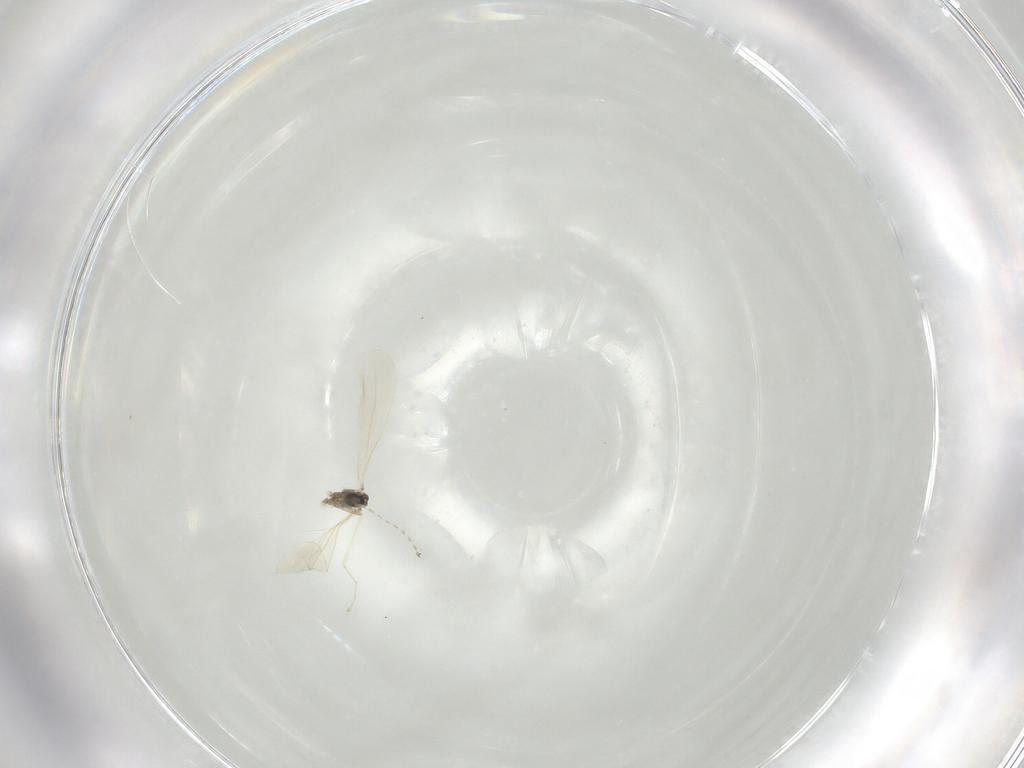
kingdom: Animalia
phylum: Arthropoda
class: Insecta
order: Diptera
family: Cecidomyiidae
